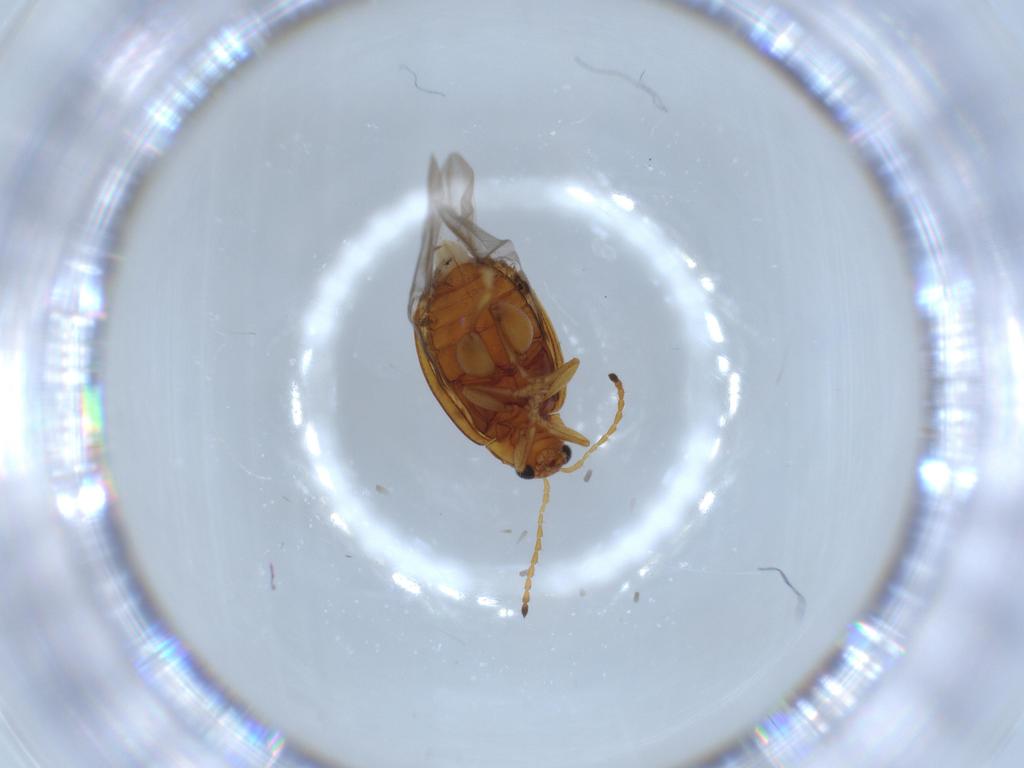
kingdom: Animalia
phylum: Arthropoda
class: Insecta
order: Coleoptera
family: Chrysomelidae
